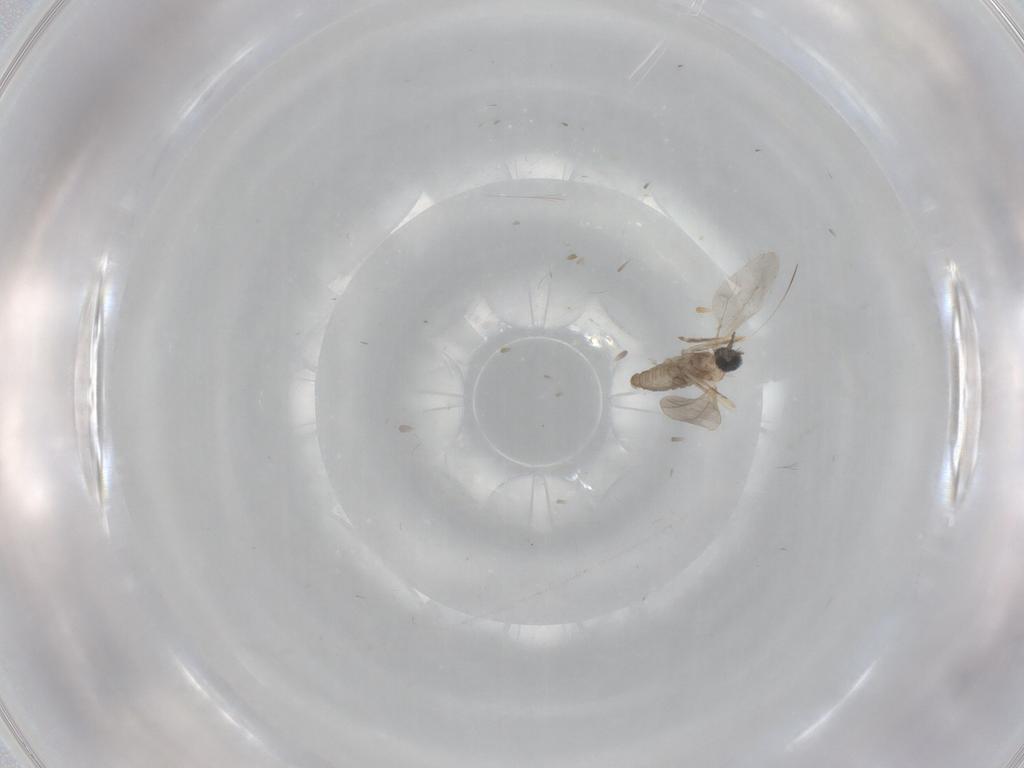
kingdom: Animalia
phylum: Arthropoda
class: Insecta
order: Diptera
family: Cecidomyiidae
